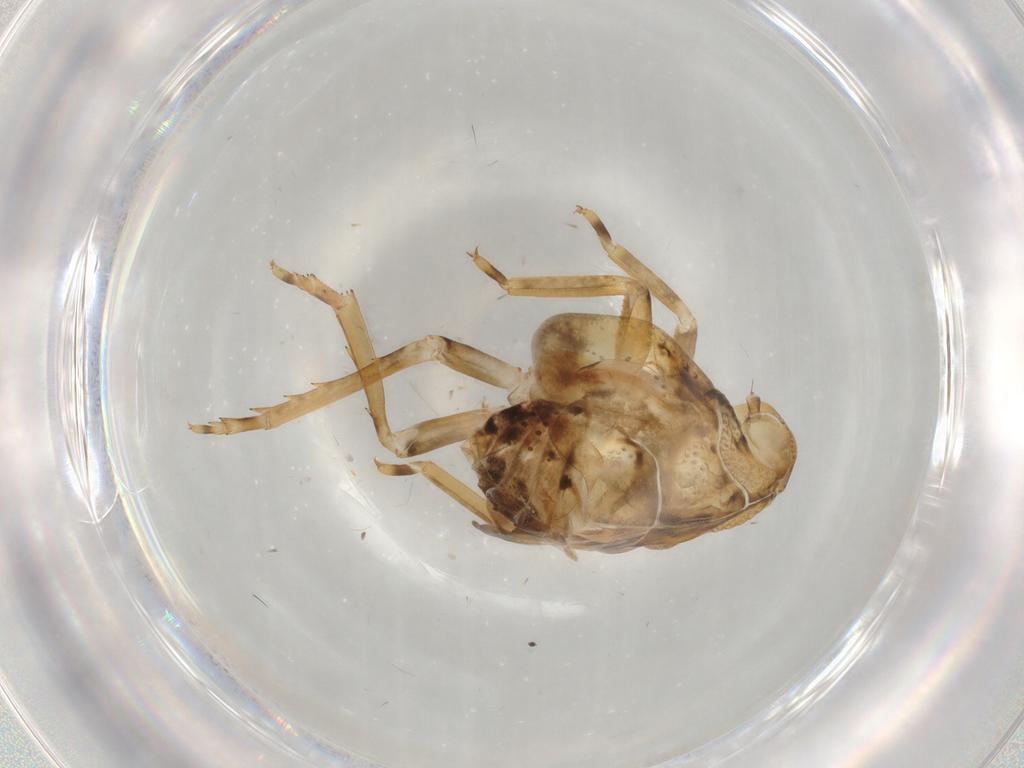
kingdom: Animalia
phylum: Arthropoda
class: Insecta
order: Hemiptera
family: Flatidae
